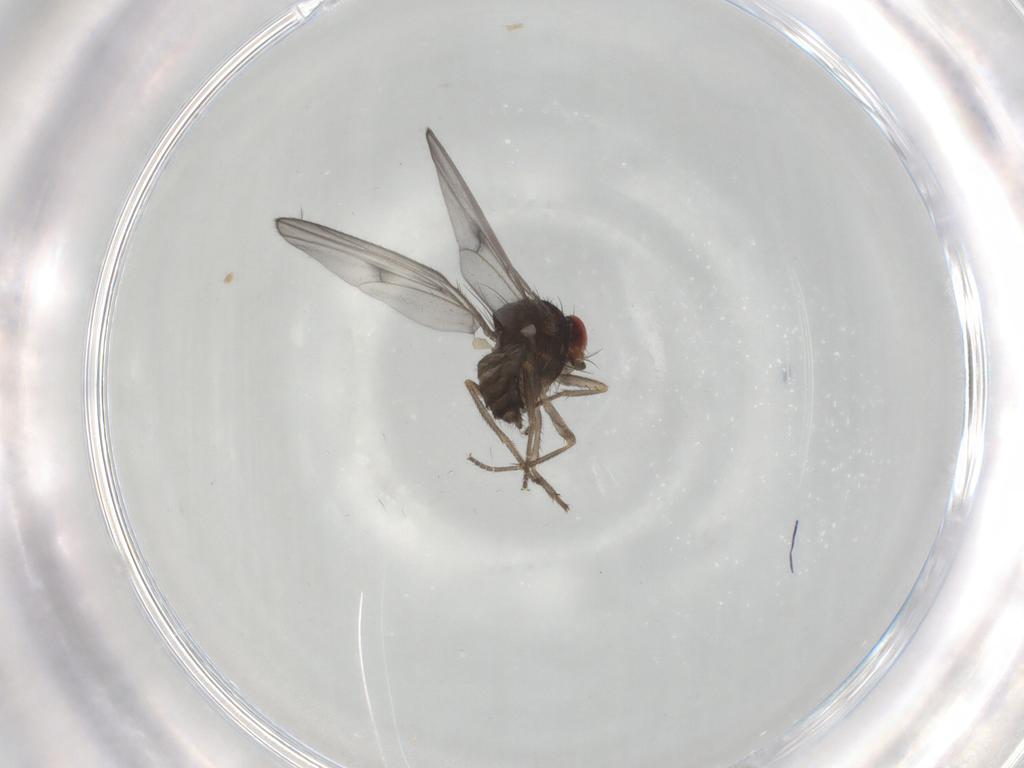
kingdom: Animalia
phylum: Arthropoda
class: Insecta
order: Diptera
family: Drosophilidae
